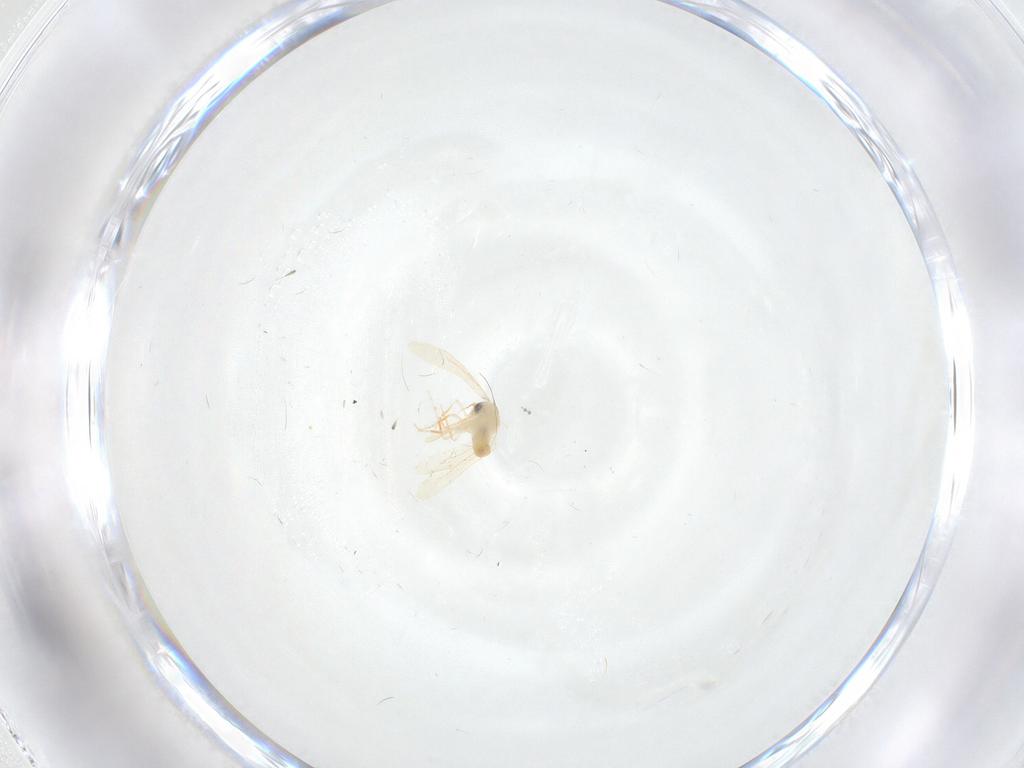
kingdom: Animalia
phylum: Arthropoda
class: Insecta
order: Hemiptera
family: Aleyrodidae
